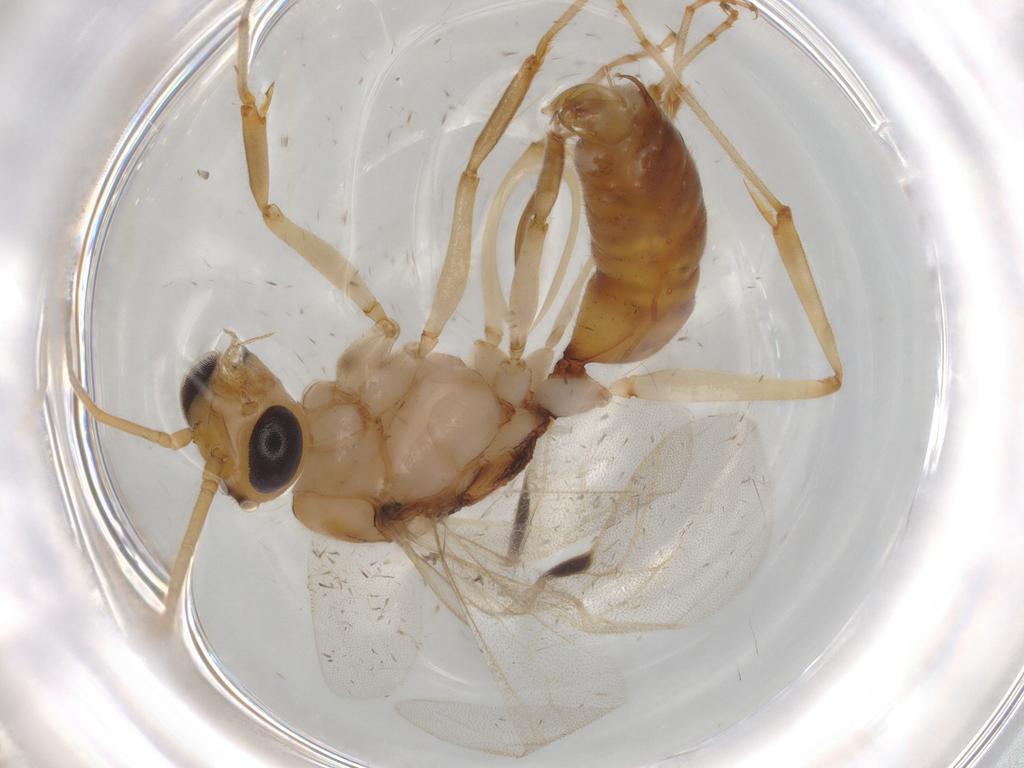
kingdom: Animalia
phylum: Arthropoda
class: Insecta
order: Hymenoptera
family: Formicidae
